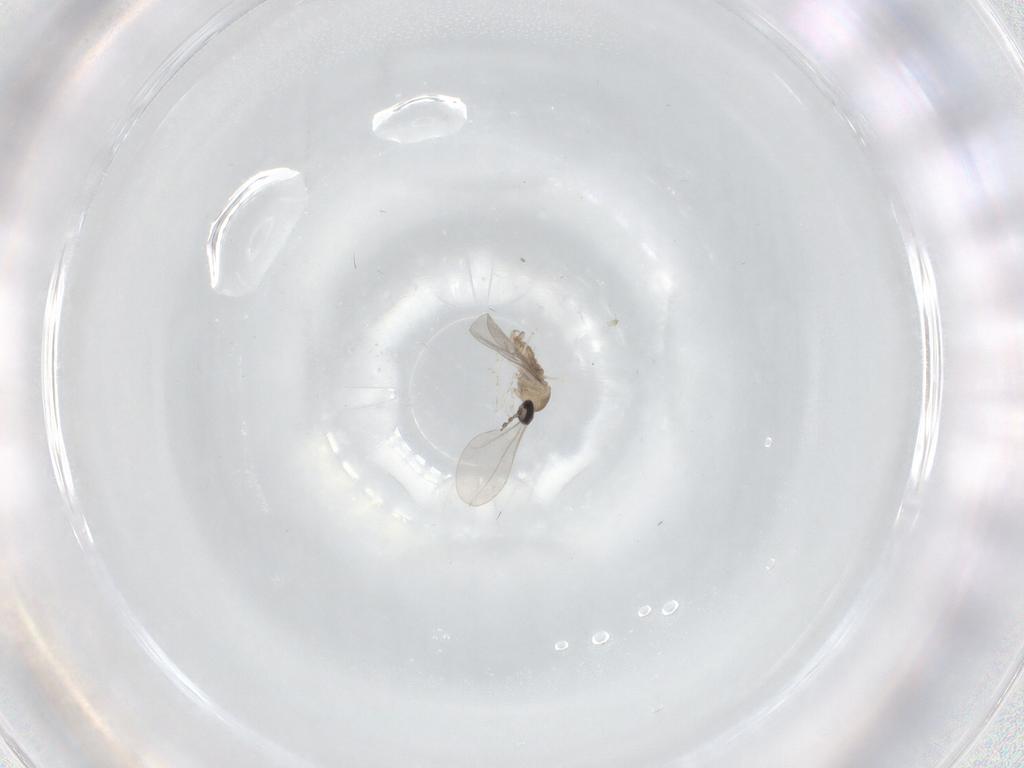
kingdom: Animalia
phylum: Arthropoda
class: Insecta
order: Diptera
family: Cecidomyiidae
